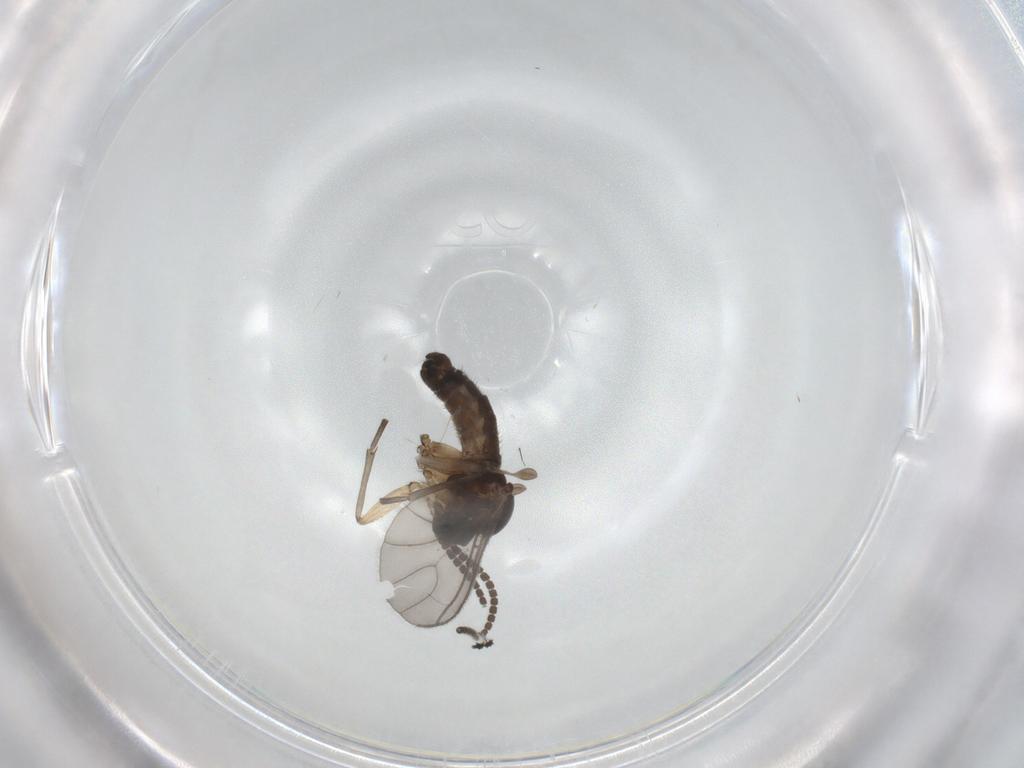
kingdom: Animalia
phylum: Arthropoda
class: Insecta
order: Diptera
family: Sciaridae
